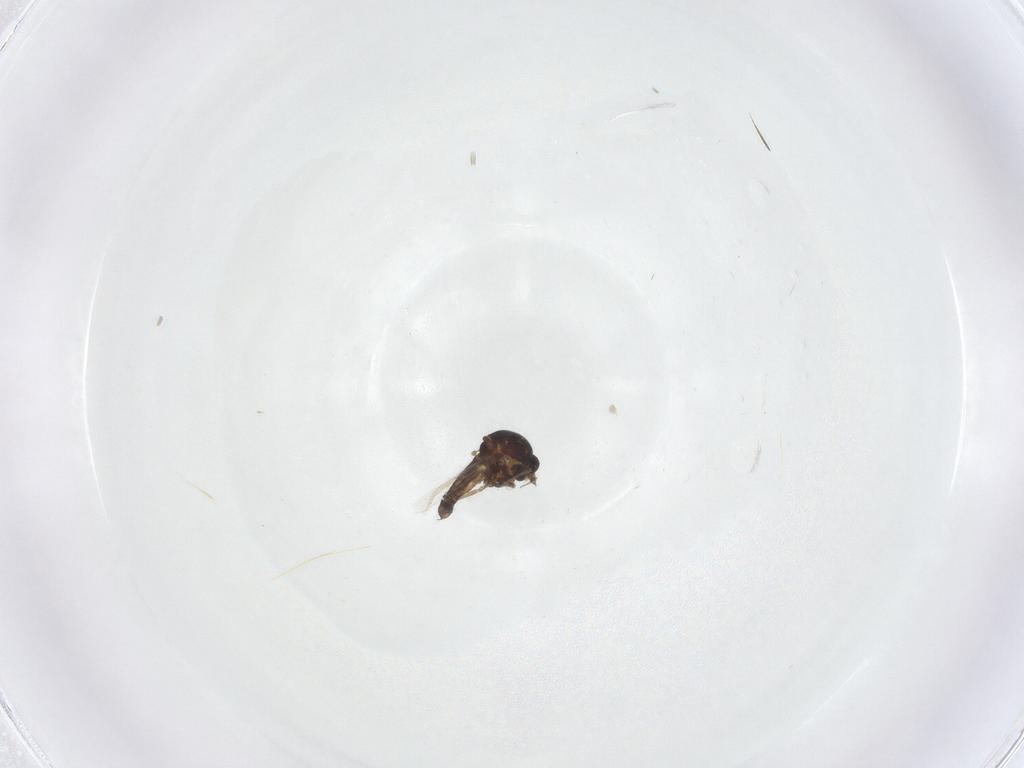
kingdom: Animalia
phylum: Arthropoda
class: Insecta
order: Diptera
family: Ceratopogonidae
